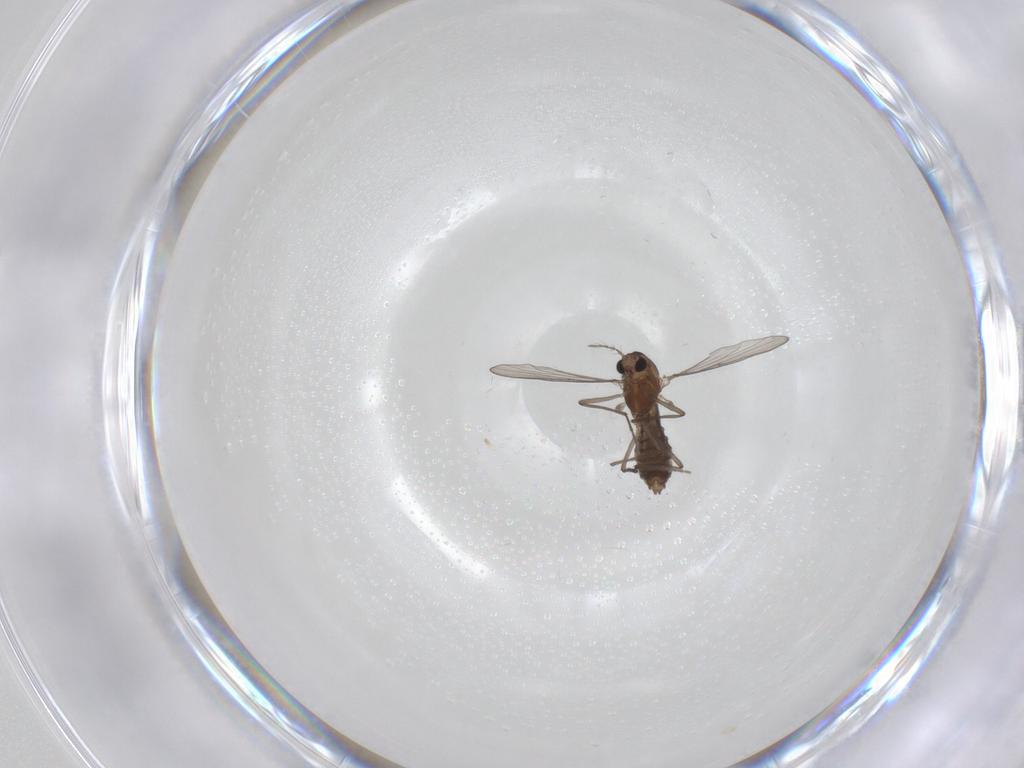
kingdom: Animalia
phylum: Arthropoda
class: Insecta
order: Diptera
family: Chironomidae
